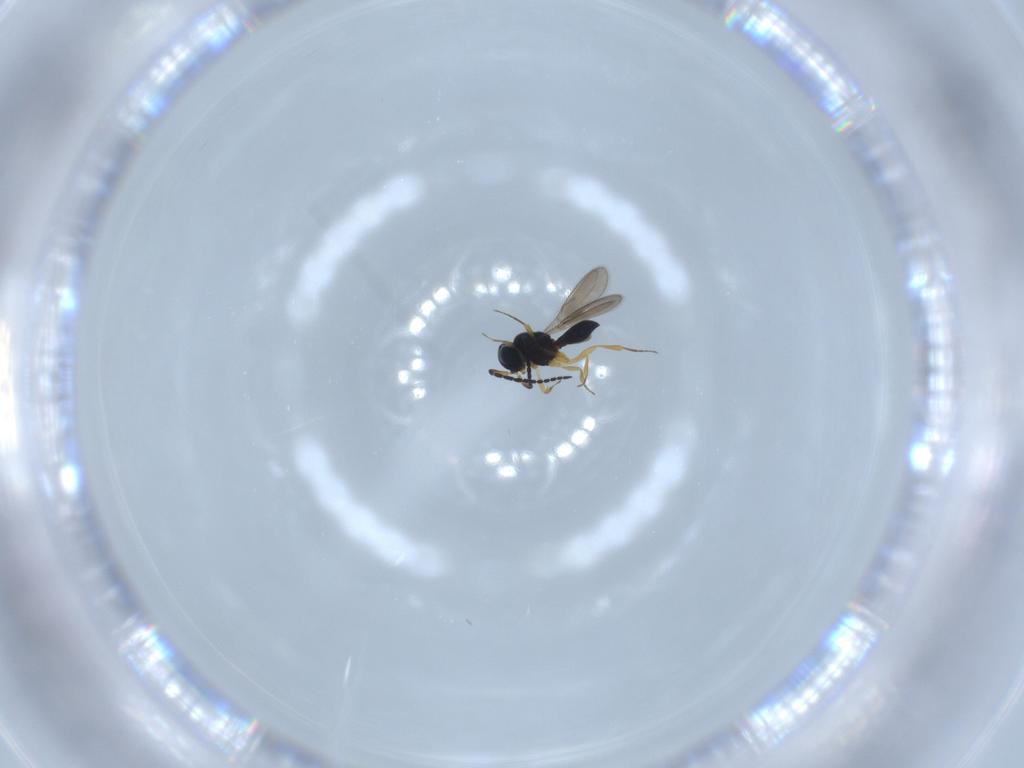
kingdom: Animalia
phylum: Arthropoda
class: Insecta
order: Hymenoptera
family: Scelionidae
